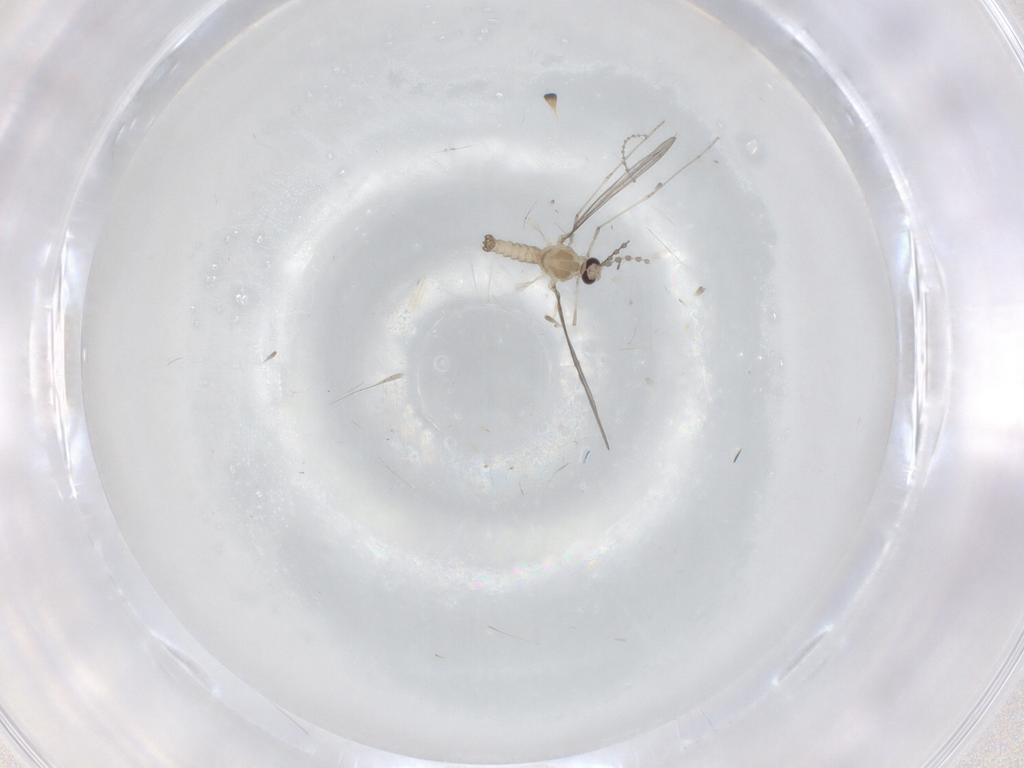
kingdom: Animalia
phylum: Arthropoda
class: Insecta
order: Diptera
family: Cecidomyiidae
